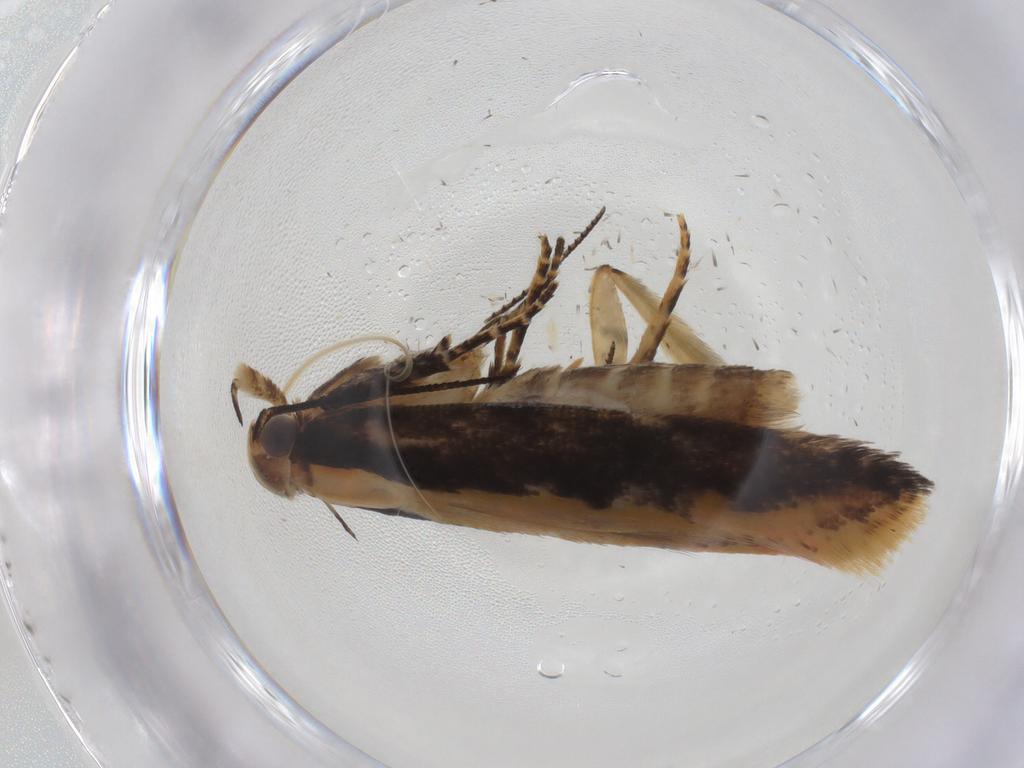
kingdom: Animalia
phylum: Arthropoda
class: Insecta
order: Lepidoptera
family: Gelechiidae
